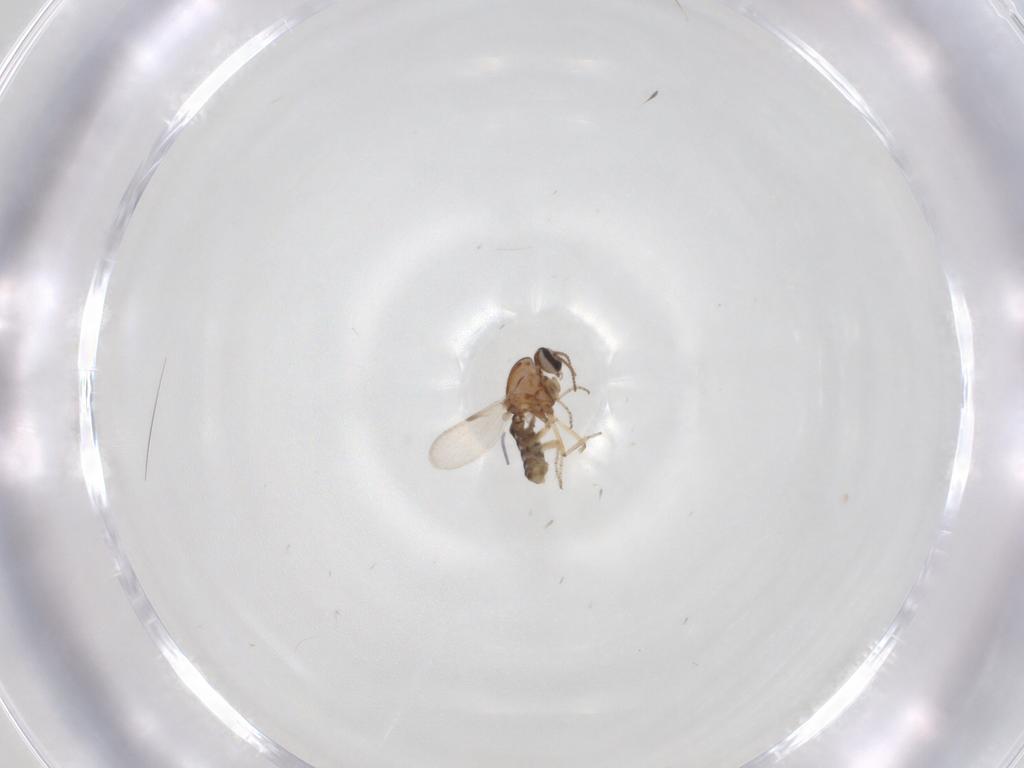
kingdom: Animalia
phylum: Arthropoda
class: Insecta
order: Diptera
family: Ceratopogonidae
